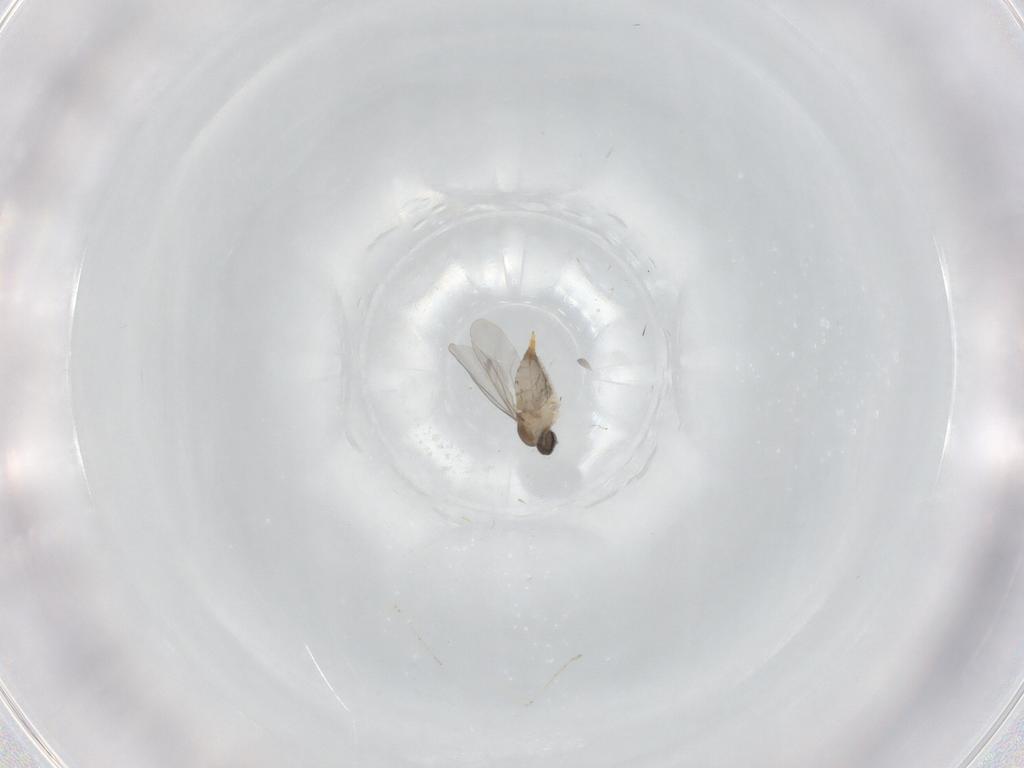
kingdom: Animalia
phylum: Arthropoda
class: Insecta
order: Diptera
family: Cecidomyiidae
